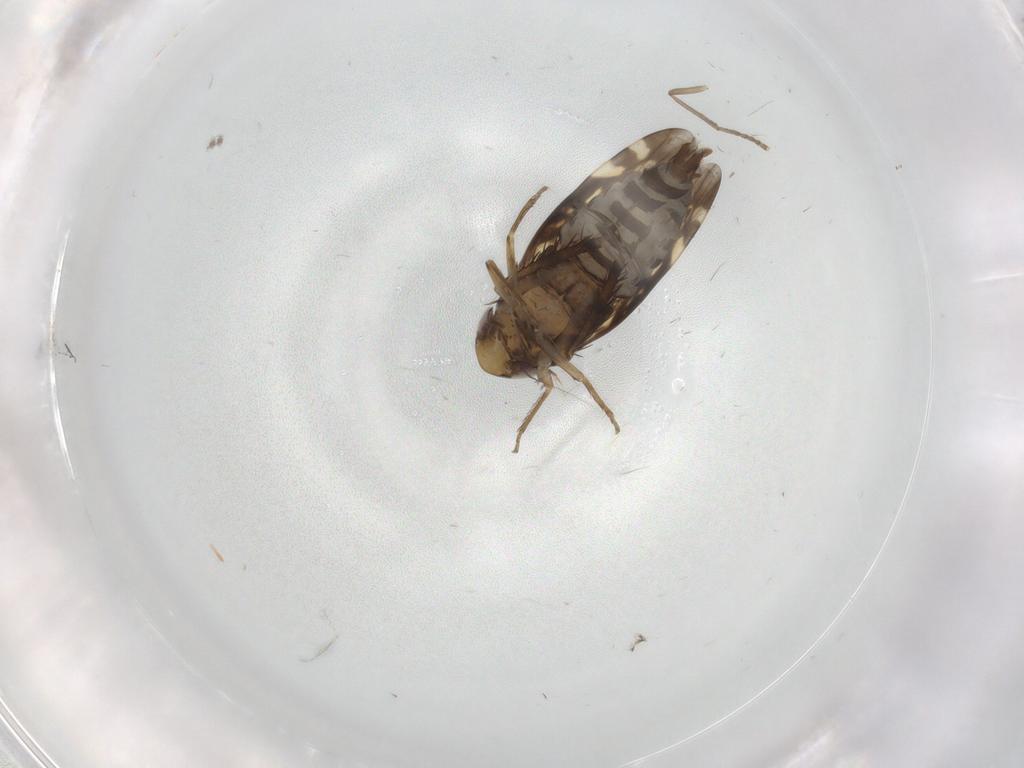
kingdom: Animalia
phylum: Arthropoda
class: Insecta
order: Hemiptera
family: Cicadellidae
